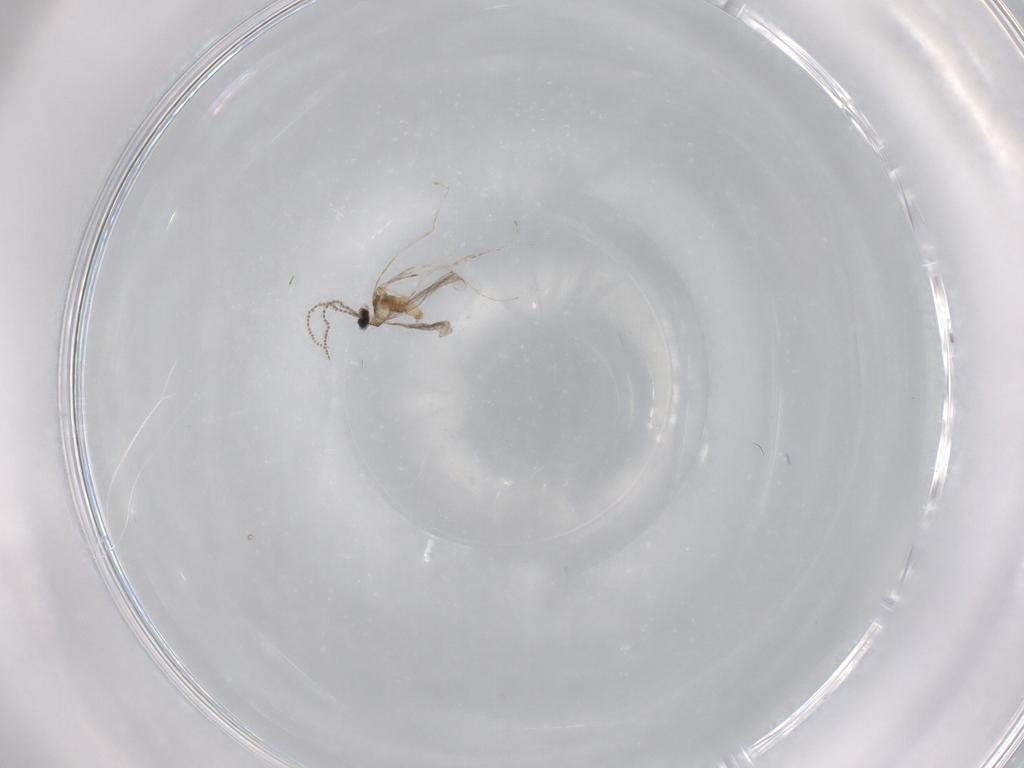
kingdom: Animalia
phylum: Arthropoda
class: Insecta
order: Diptera
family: Cecidomyiidae
